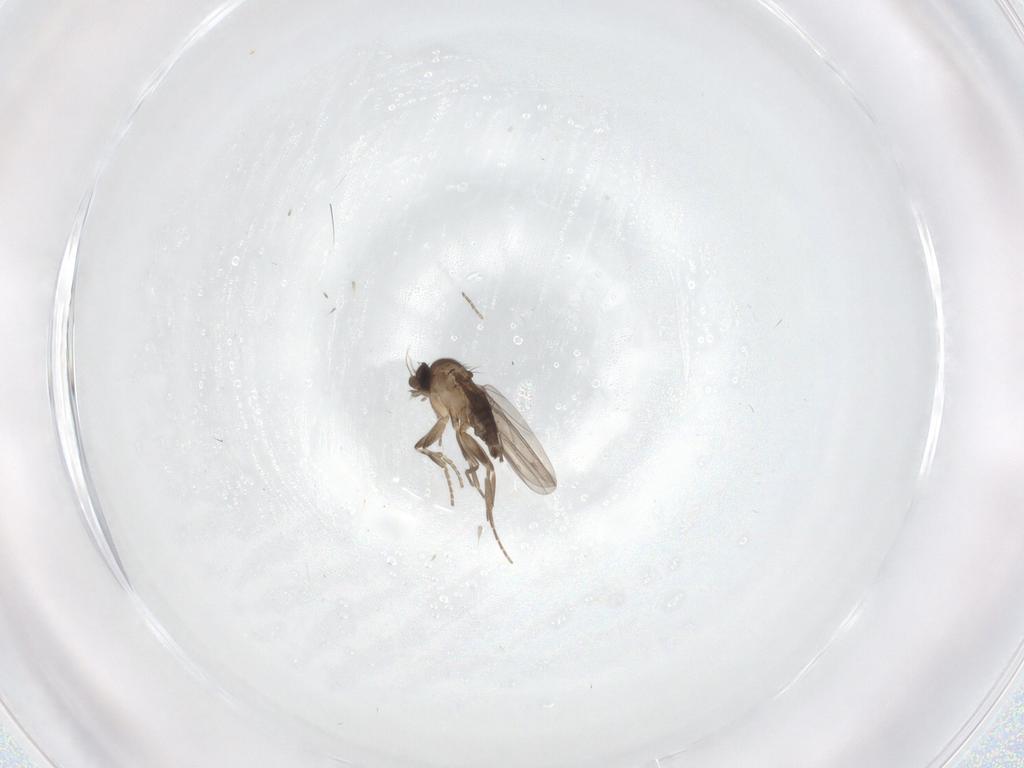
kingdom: Animalia
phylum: Arthropoda
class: Insecta
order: Diptera
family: Phoridae
